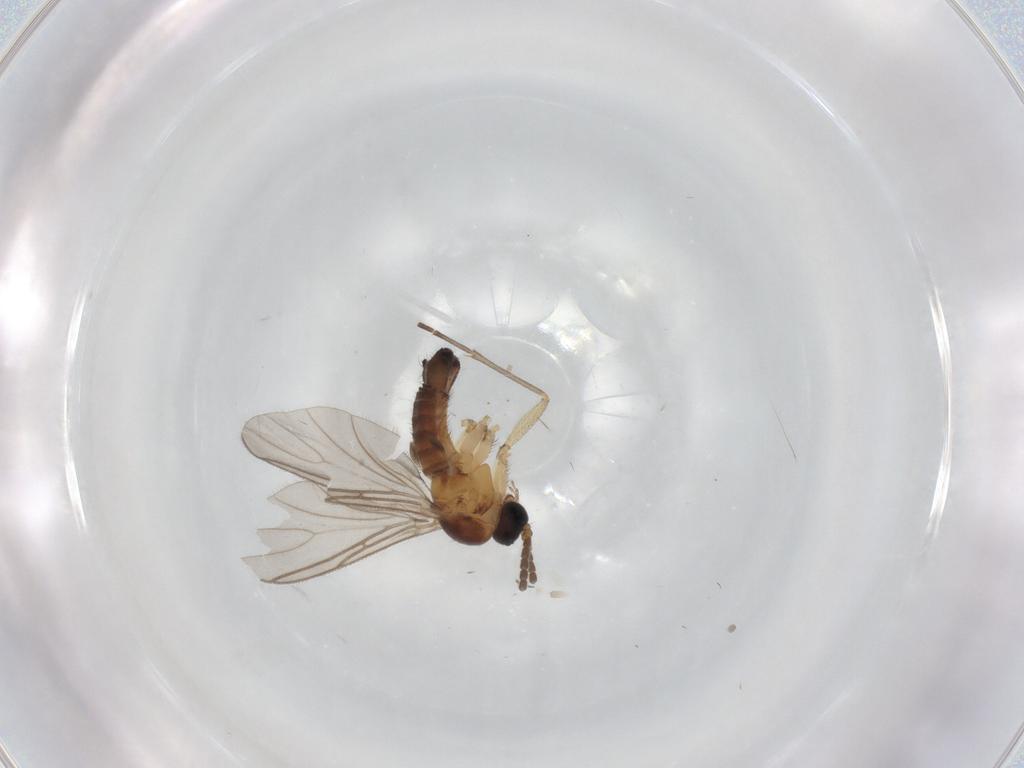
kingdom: Animalia
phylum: Arthropoda
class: Insecta
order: Diptera
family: Sciaridae
